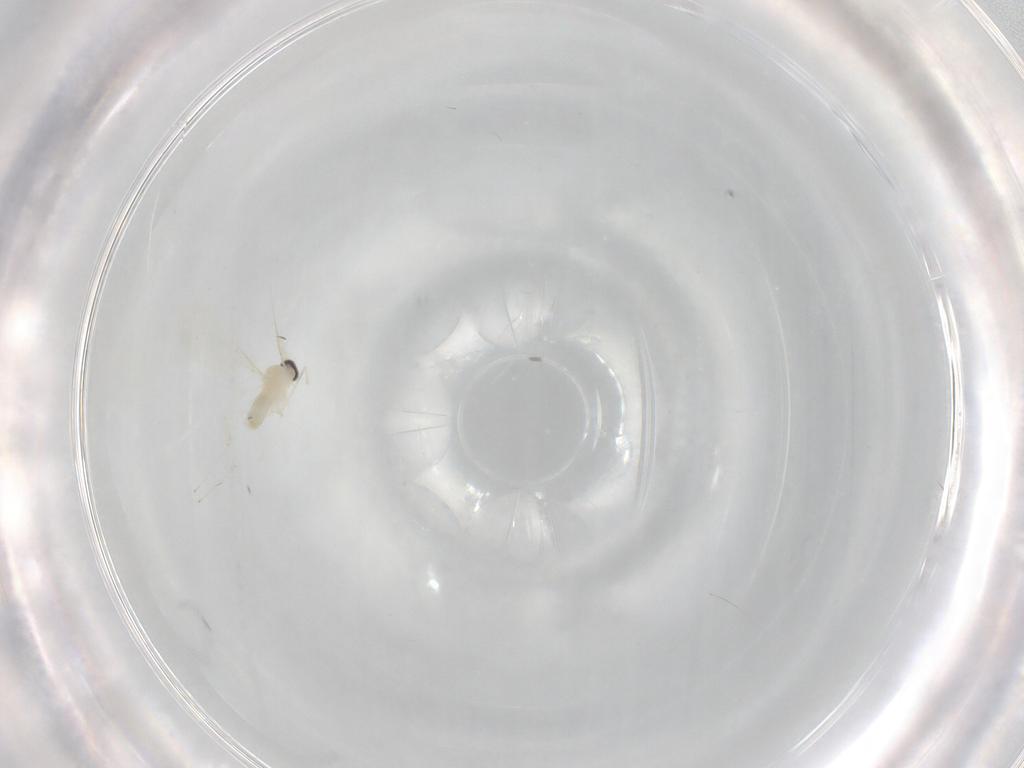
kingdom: Animalia
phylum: Arthropoda
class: Insecta
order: Diptera
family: Cecidomyiidae
